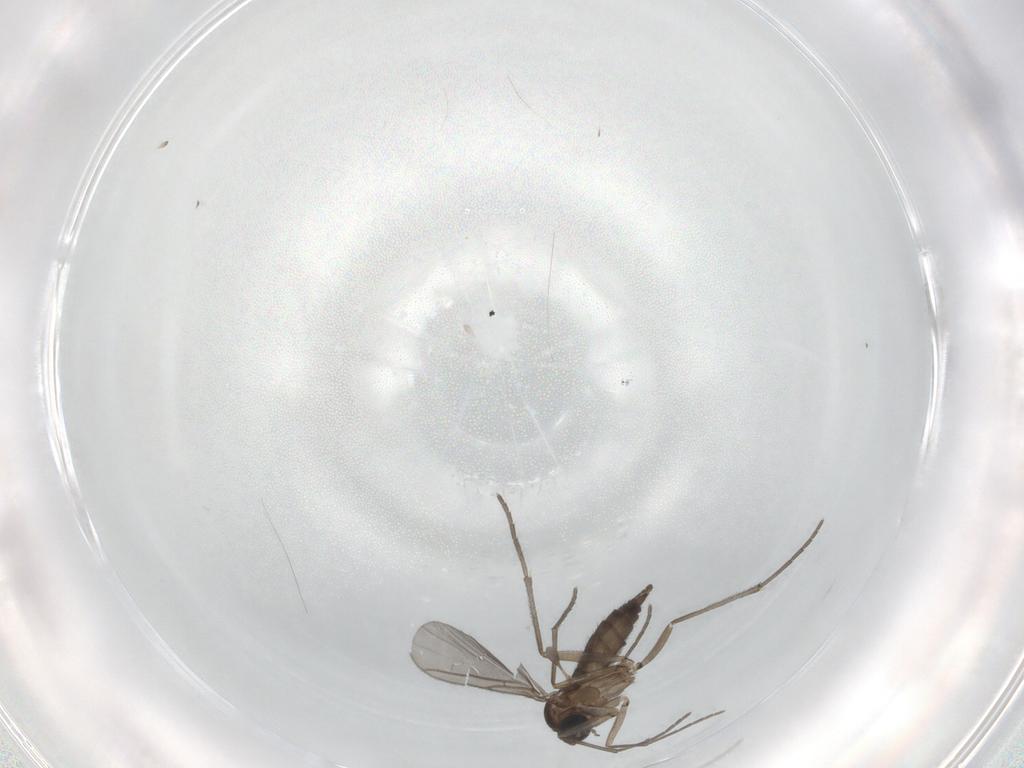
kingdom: Animalia
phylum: Arthropoda
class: Insecta
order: Diptera
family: Sciaridae
